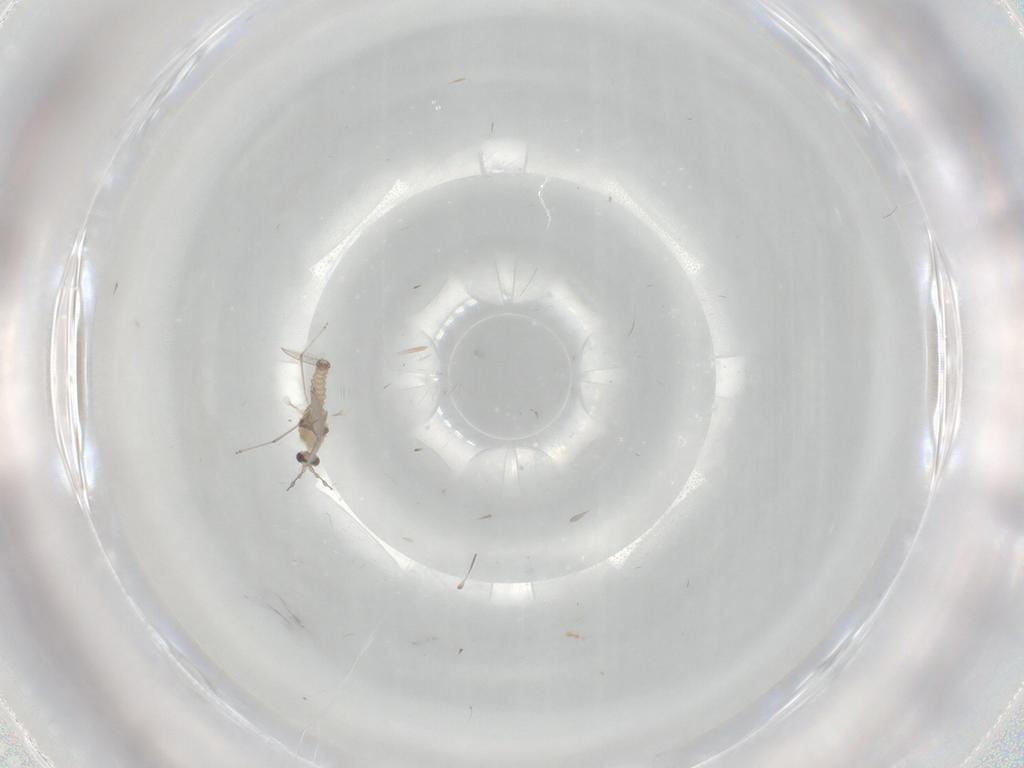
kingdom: Animalia
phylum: Arthropoda
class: Insecta
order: Diptera
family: Cecidomyiidae
